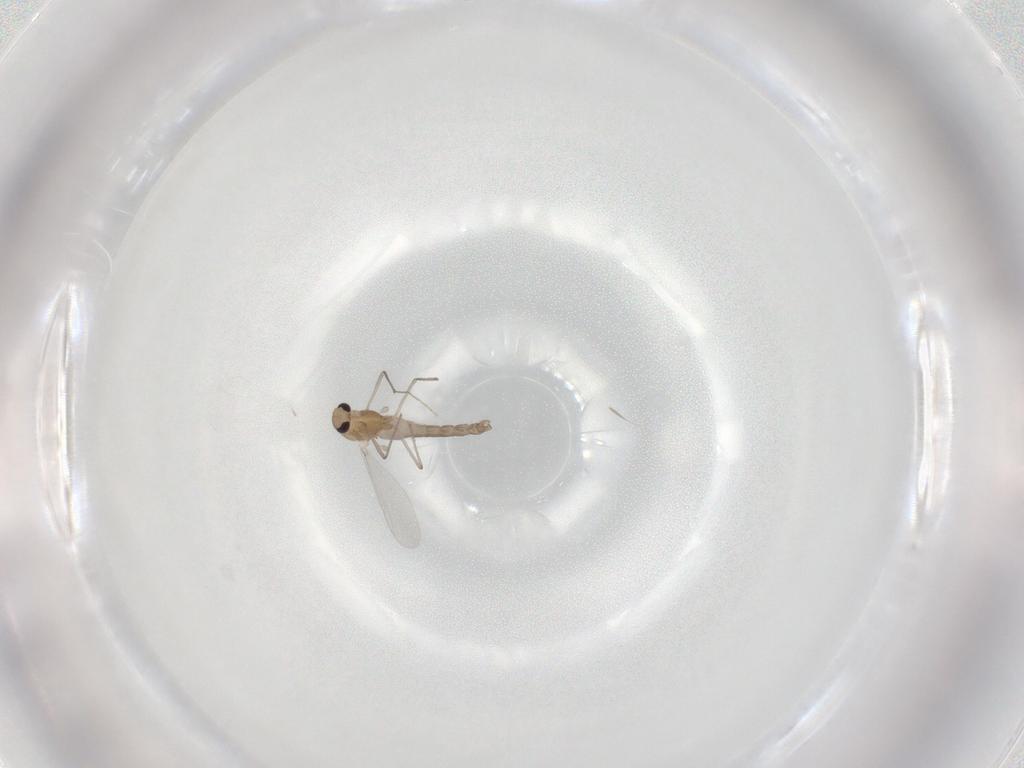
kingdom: Animalia
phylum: Arthropoda
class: Insecta
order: Diptera
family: Chironomidae
